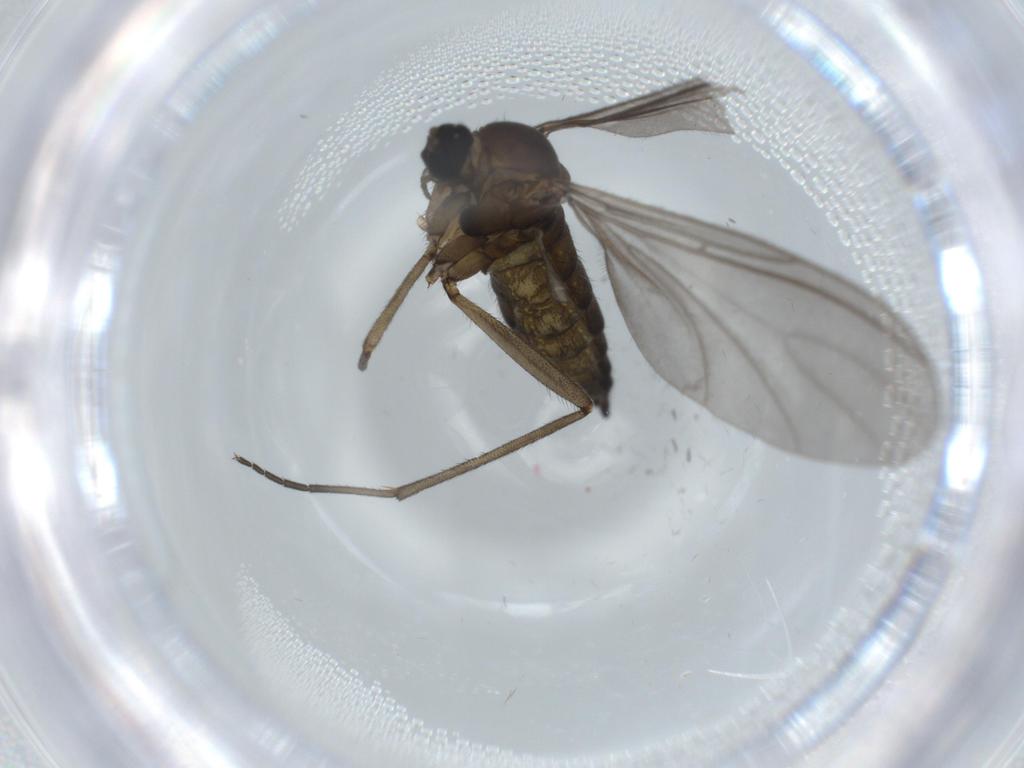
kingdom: Animalia
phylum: Arthropoda
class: Insecta
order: Diptera
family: Sciaridae
